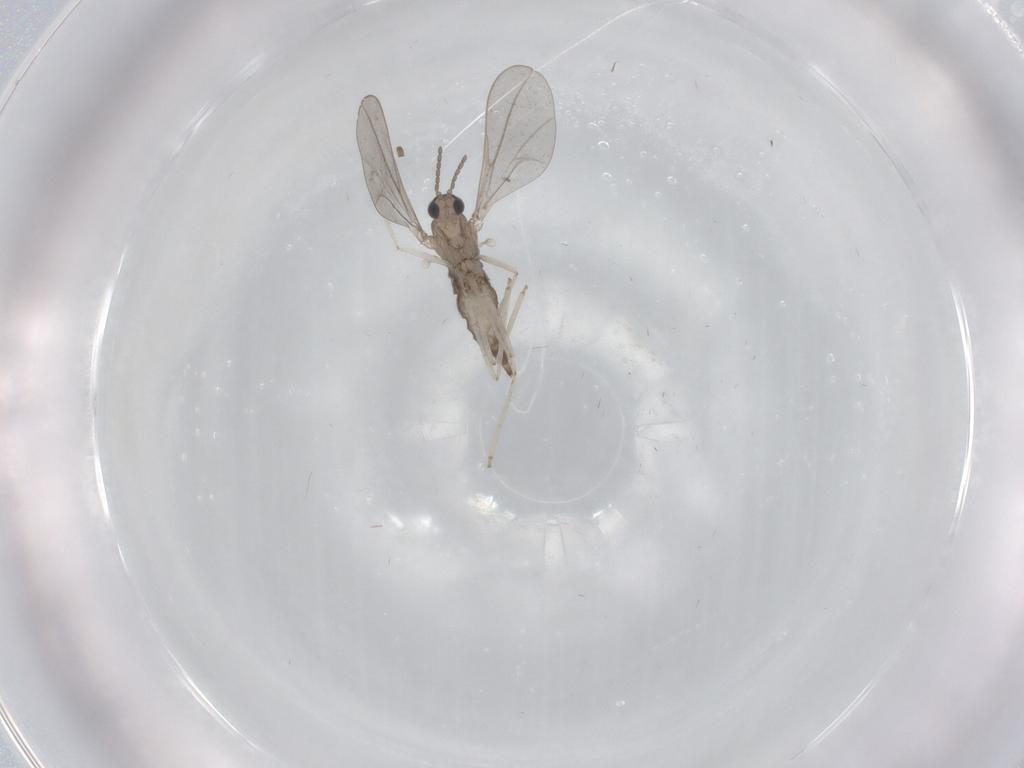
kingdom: Animalia
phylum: Arthropoda
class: Insecta
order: Diptera
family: Cecidomyiidae
